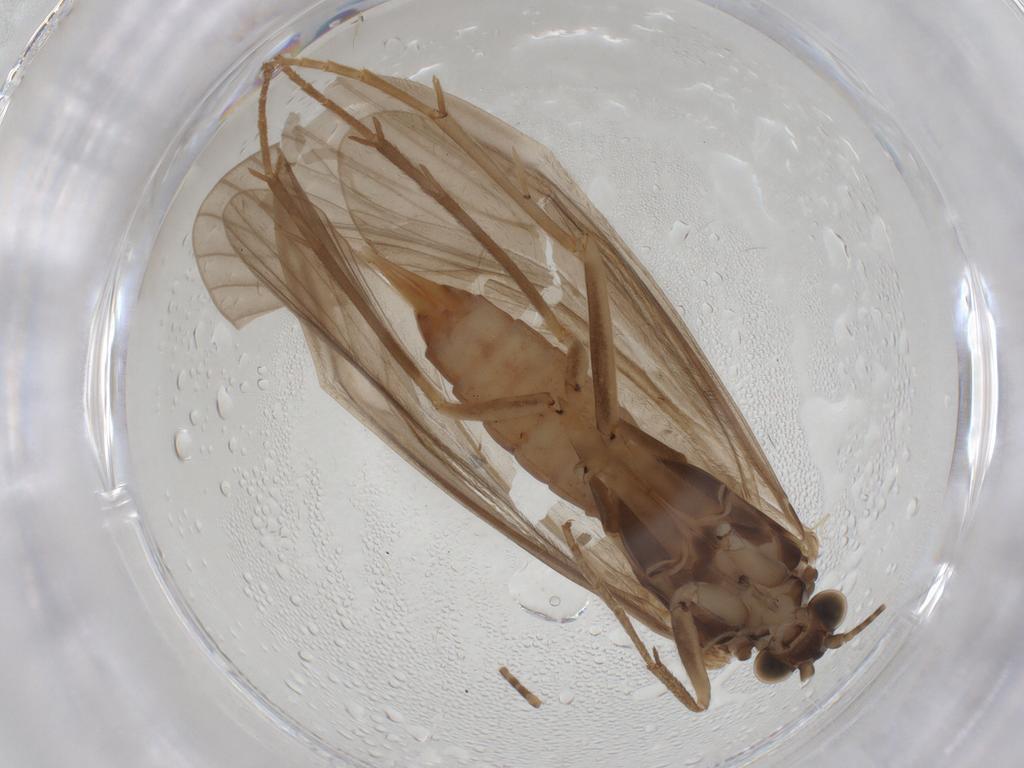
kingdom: Animalia
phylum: Arthropoda
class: Insecta
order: Trichoptera
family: Psychomyiidae
